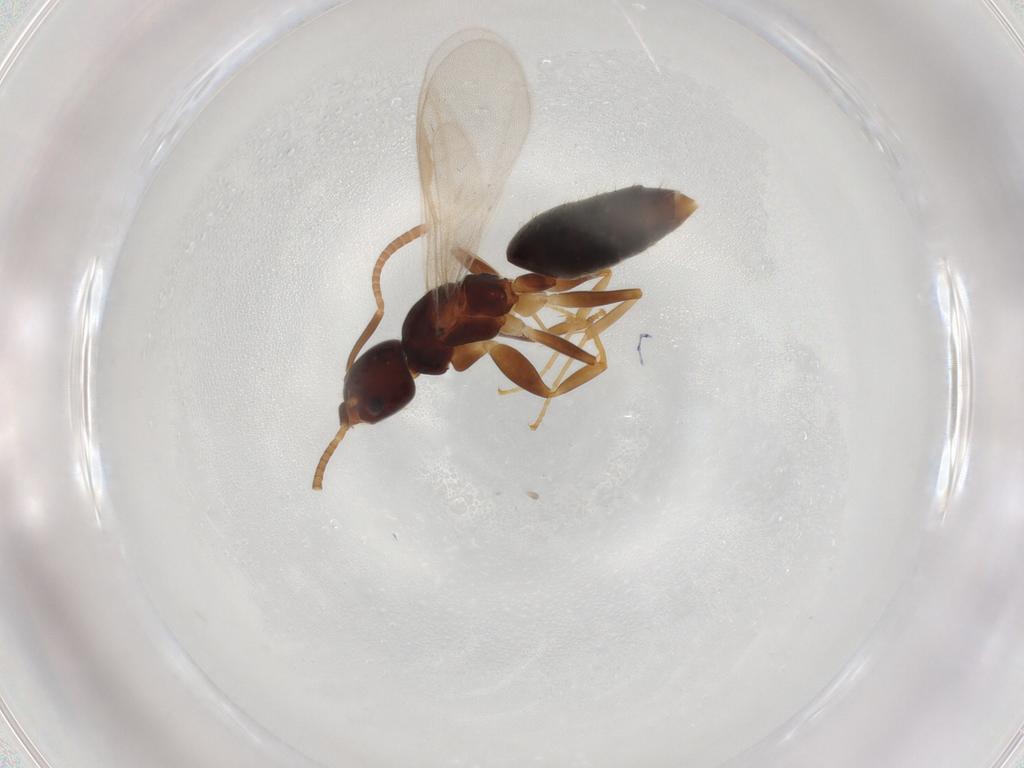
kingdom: Animalia
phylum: Arthropoda
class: Insecta
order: Hymenoptera
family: Formicidae
